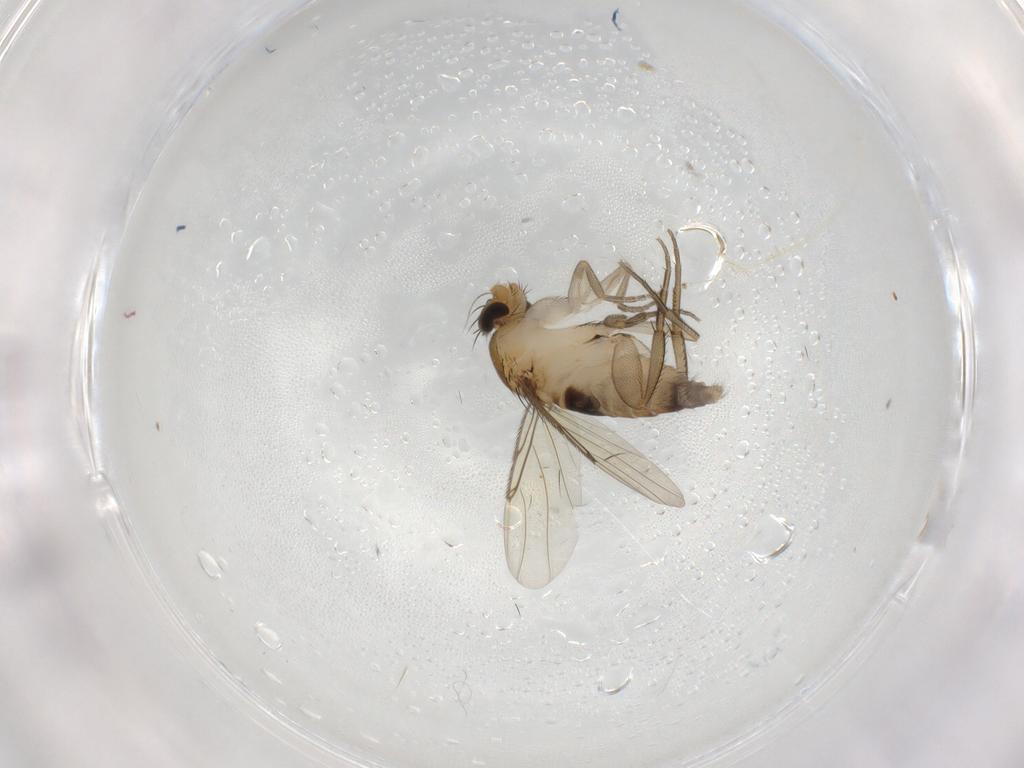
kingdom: Animalia
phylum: Arthropoda
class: Insecta
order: Diptera
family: Phoridae
